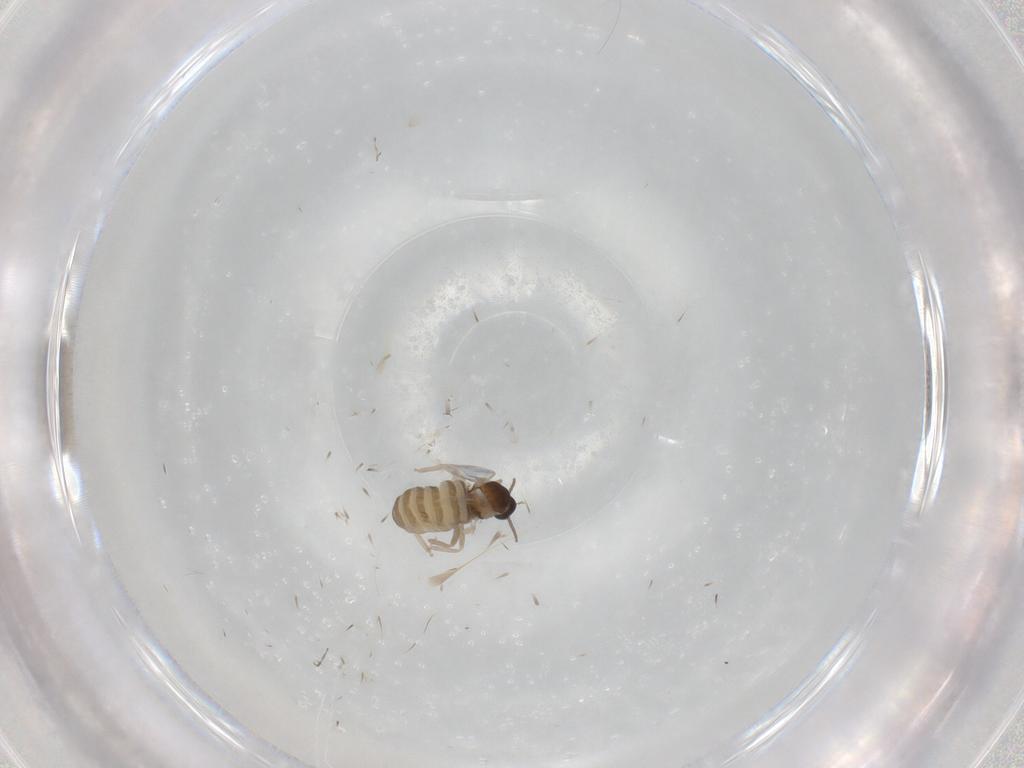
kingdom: Animalia
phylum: Arthropoda
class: Insecta
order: Diptera
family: Cecidomyiidae
